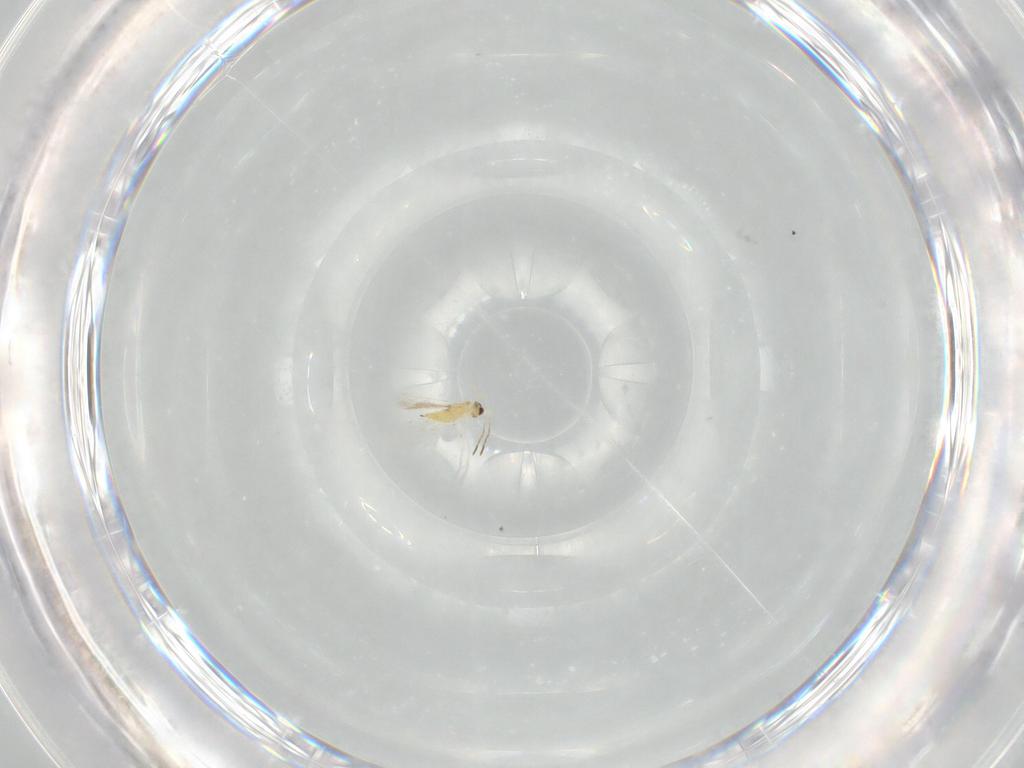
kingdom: Animalia
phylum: Arthropoda
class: Insecta
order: Hymenoptera
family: Mymaridae
